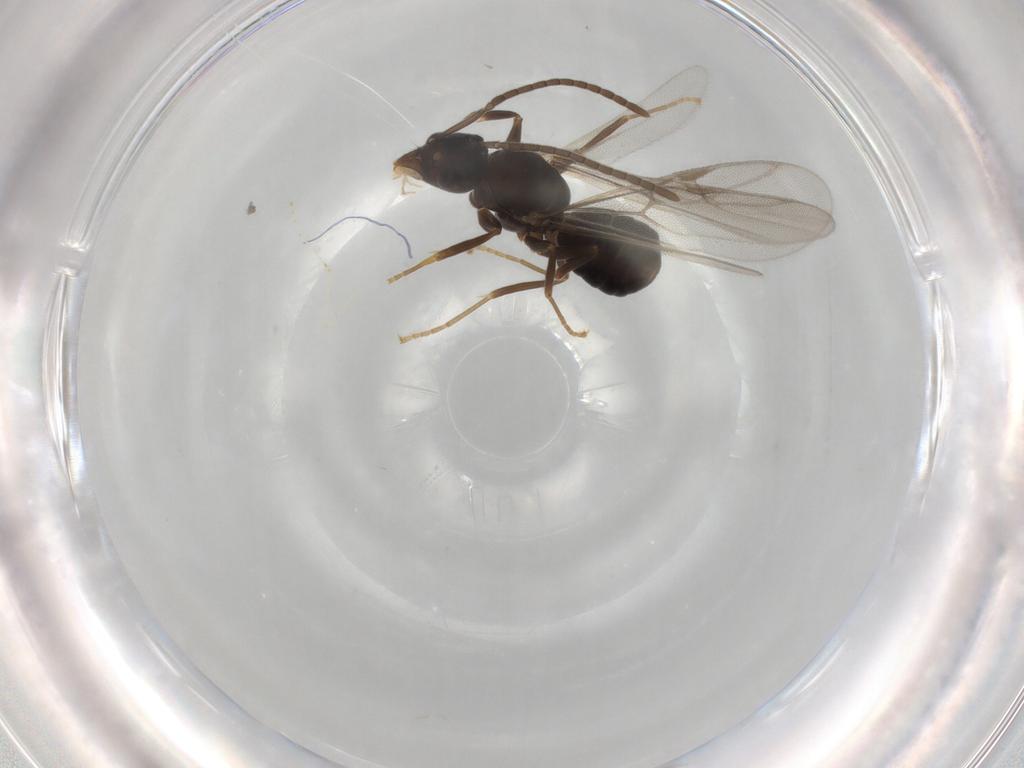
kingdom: Animalia
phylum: Arthropoda
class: Insecta
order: Hymenoptera
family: Formicidae
